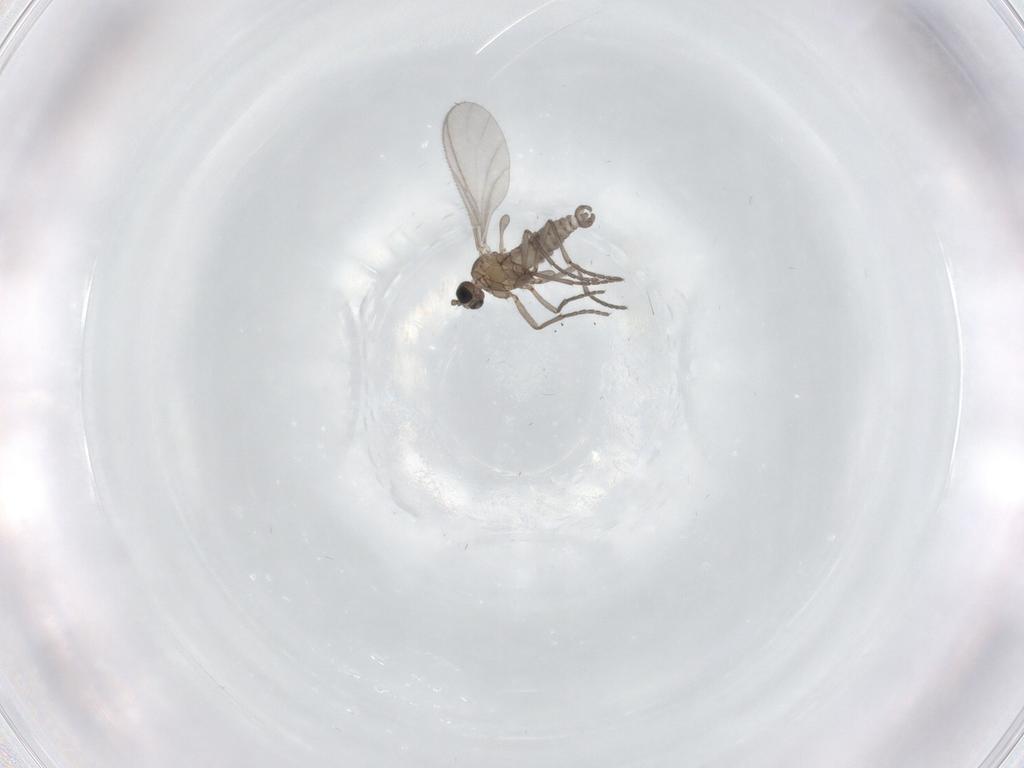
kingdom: Animalia
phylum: Arthropoda
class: Insecta
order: Diptera
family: Sciaridae
